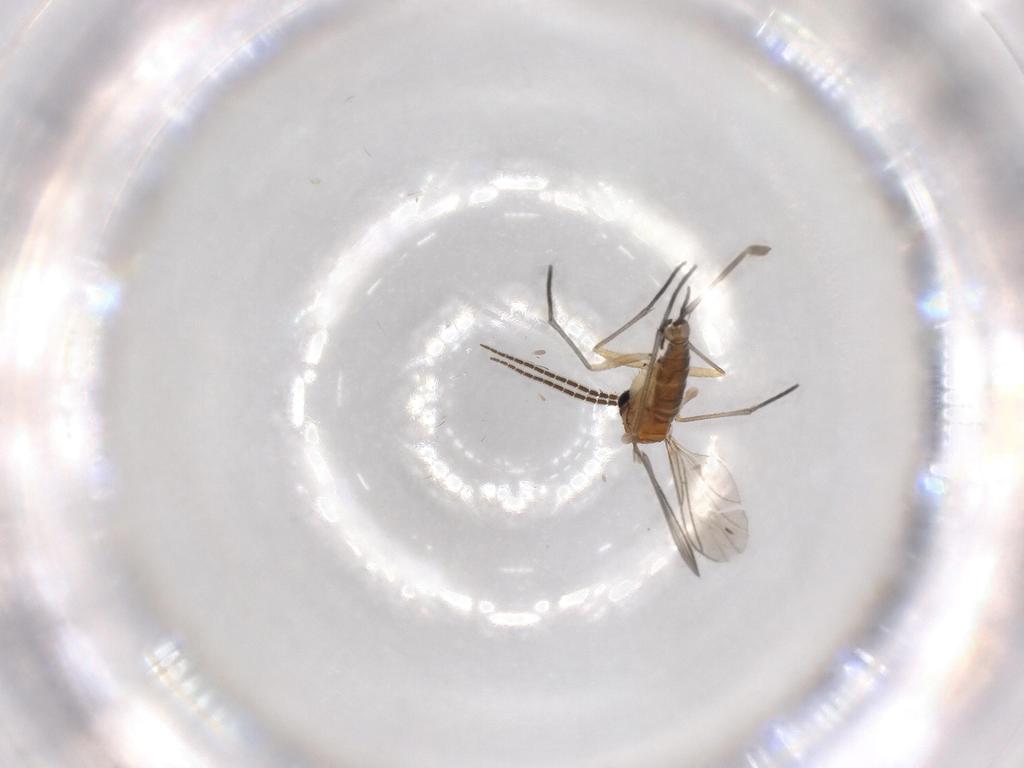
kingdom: Animalia
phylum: Arthropoda
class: Insecta
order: Diptera
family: Sciaridae
